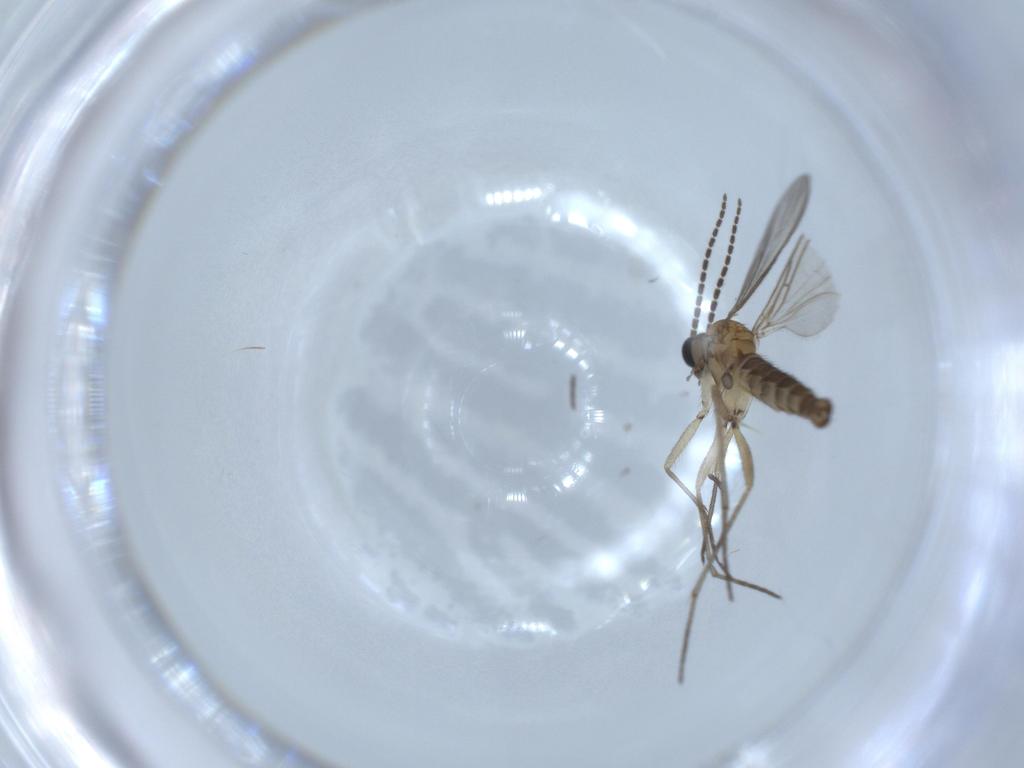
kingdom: Animalia
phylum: Arthropoda
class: Insecta
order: Diptera
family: Sciaridae
